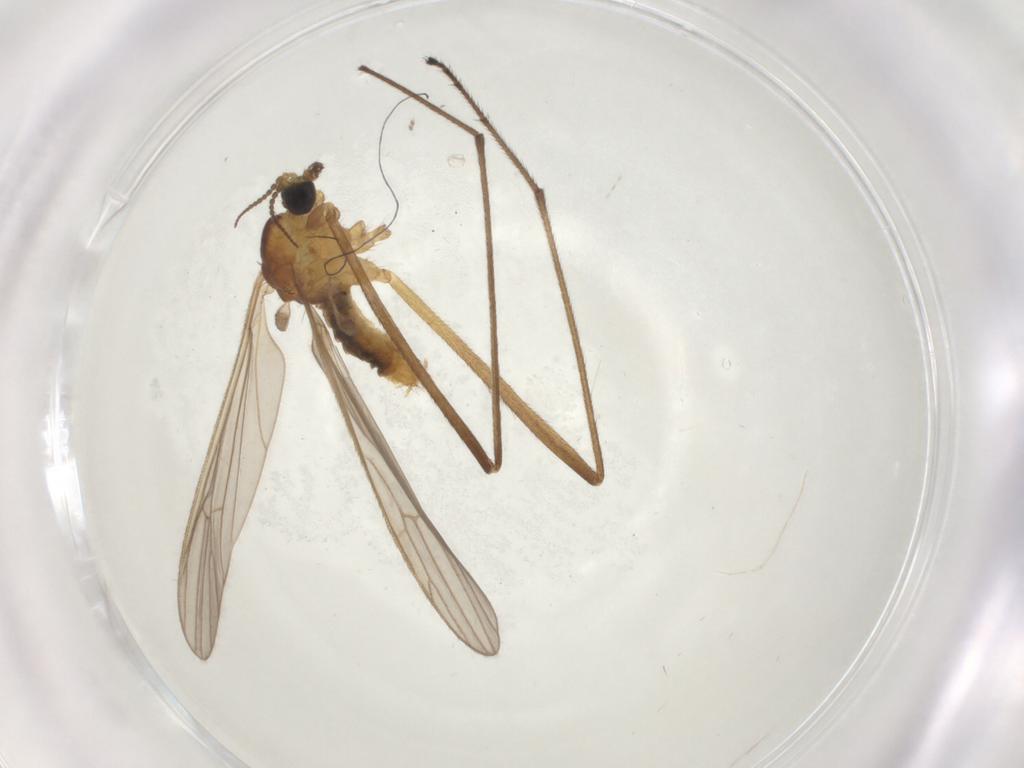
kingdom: Animalia
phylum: Arthropoda
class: Insecta
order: Diptera
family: Limoniidae
